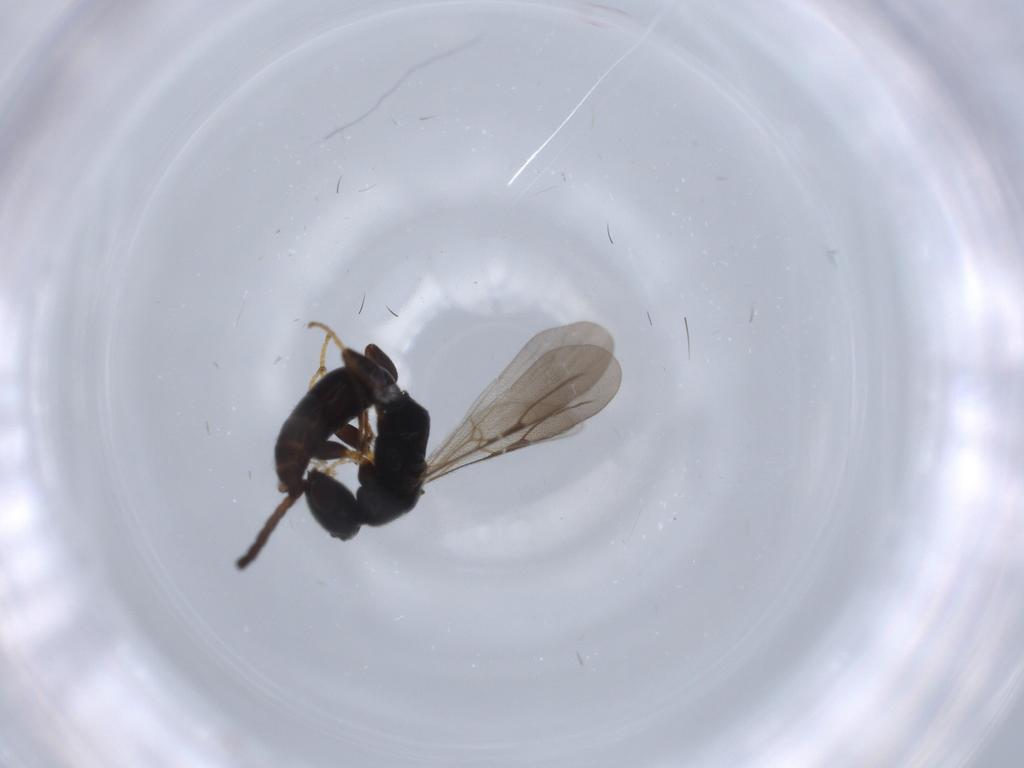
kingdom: Animalia
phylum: Arthropoda
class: Insecta
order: Hymenoptera
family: Bethylidae
